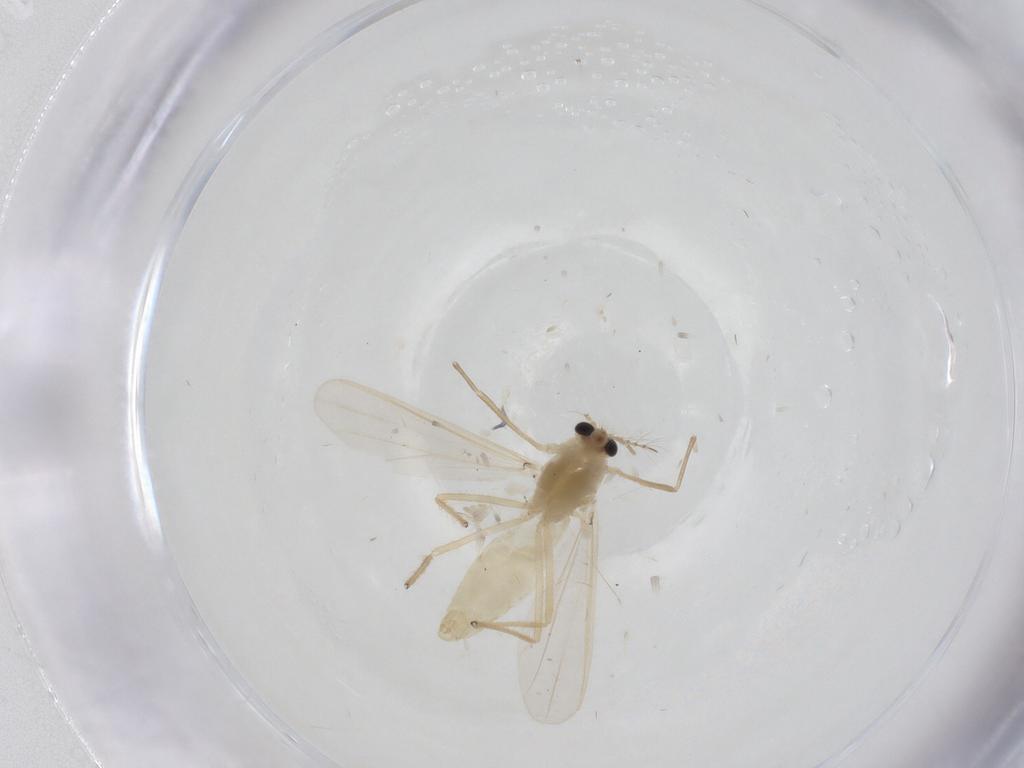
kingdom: Animalia
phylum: Arthropoda
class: Insecta
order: Diptera
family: Chironomidae
